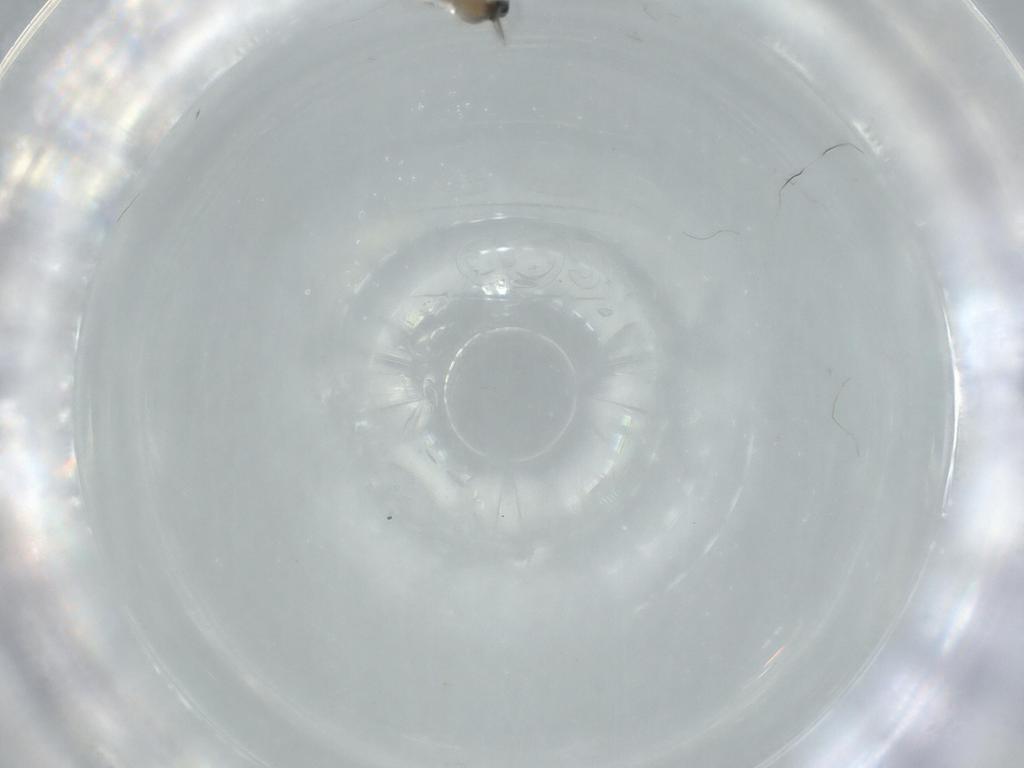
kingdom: Animalia
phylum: Arthropoda
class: Insecta
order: Diptera
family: Cecidomyiidae
